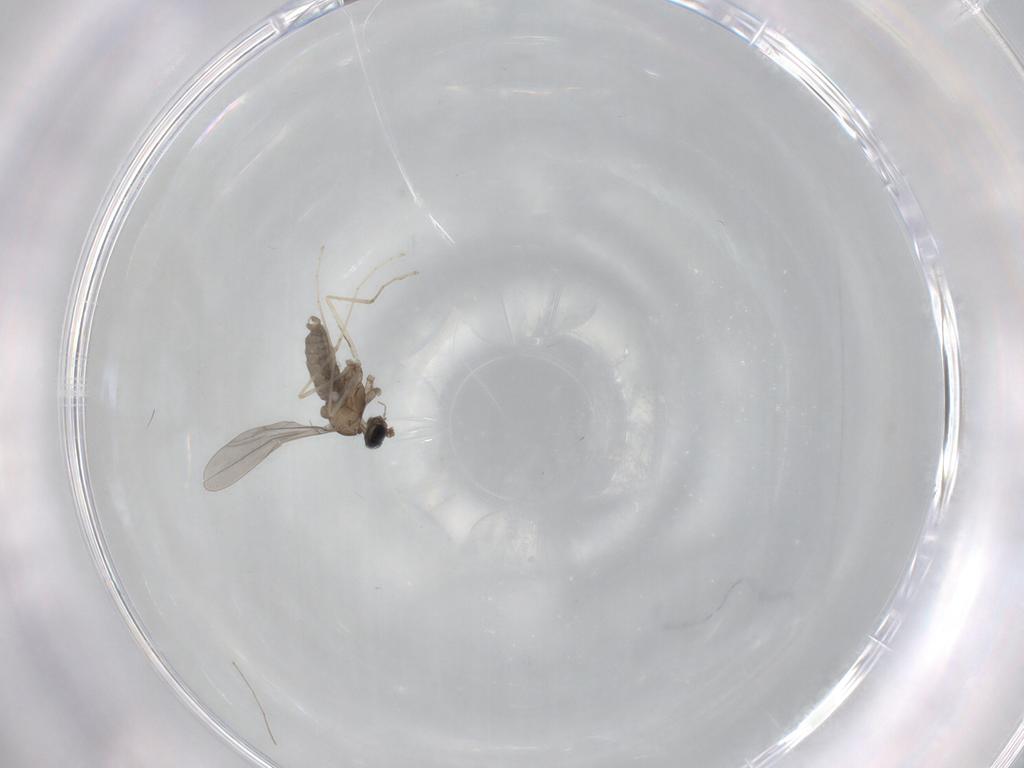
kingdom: Animalia
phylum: Arthropoda
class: Insecta
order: Diptera
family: Cecidomyiidae
